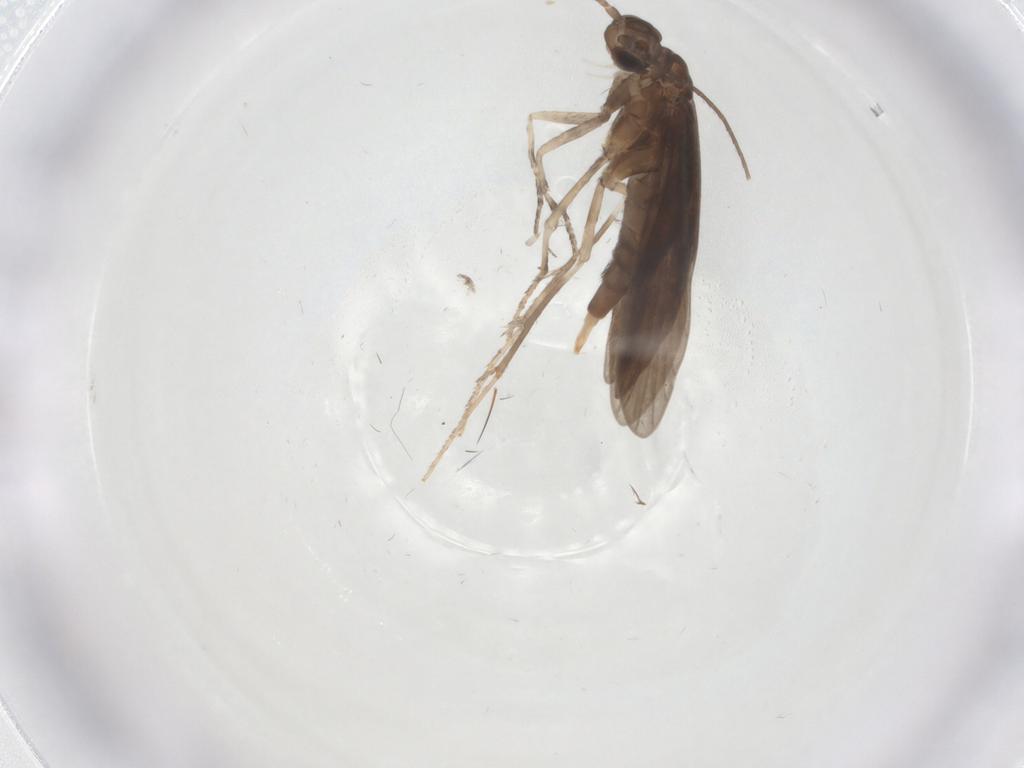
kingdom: Animalia
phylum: Arthropoda
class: Insecta
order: Trichoptera
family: Xiphocentronidae
